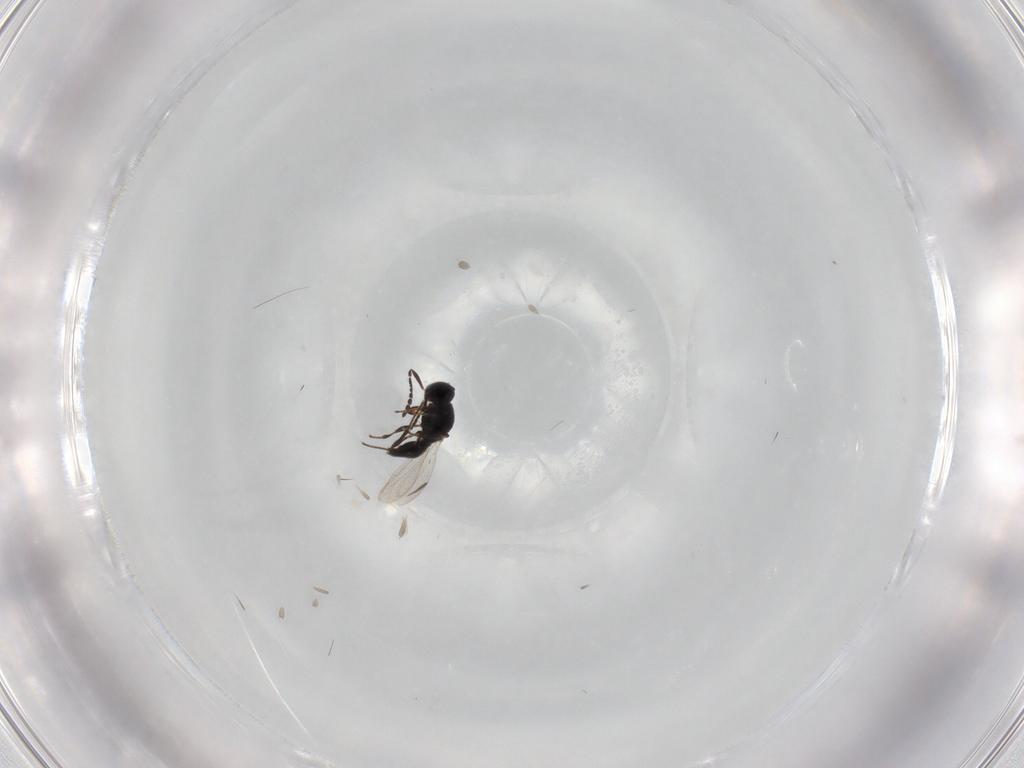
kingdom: Animalia
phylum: Arthropoda
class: Insecta
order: Hymenoptera
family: Platygastridae
